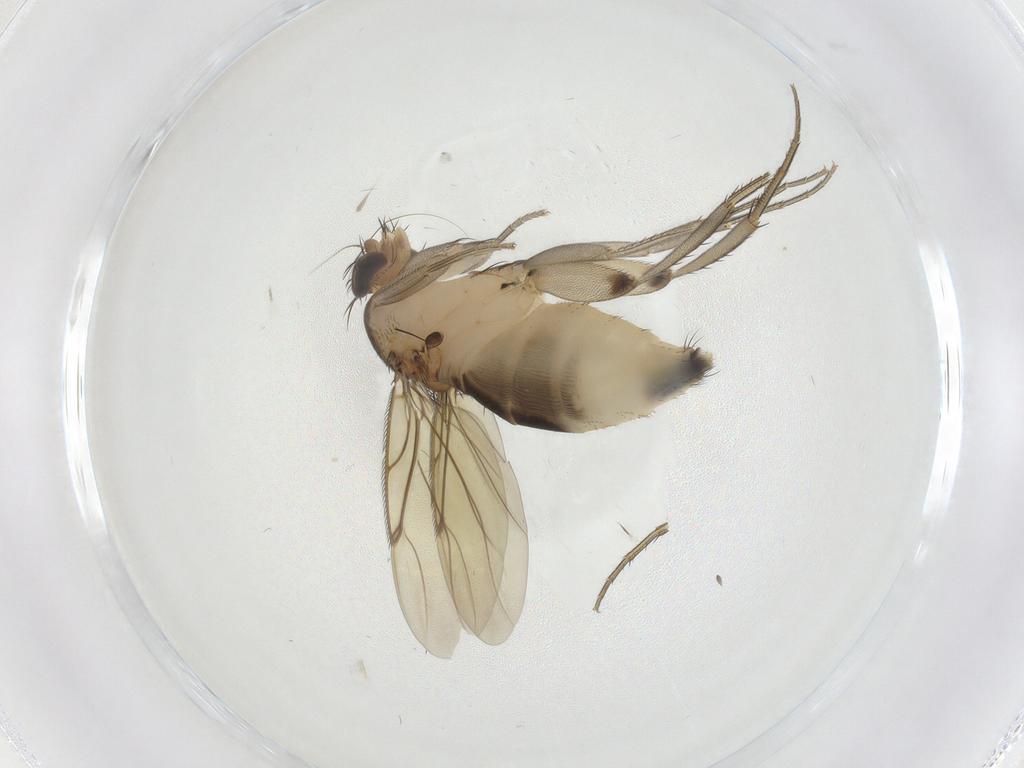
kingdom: Animalia
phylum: Arthropoda
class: Insecta
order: Diptera
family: Phoridae
